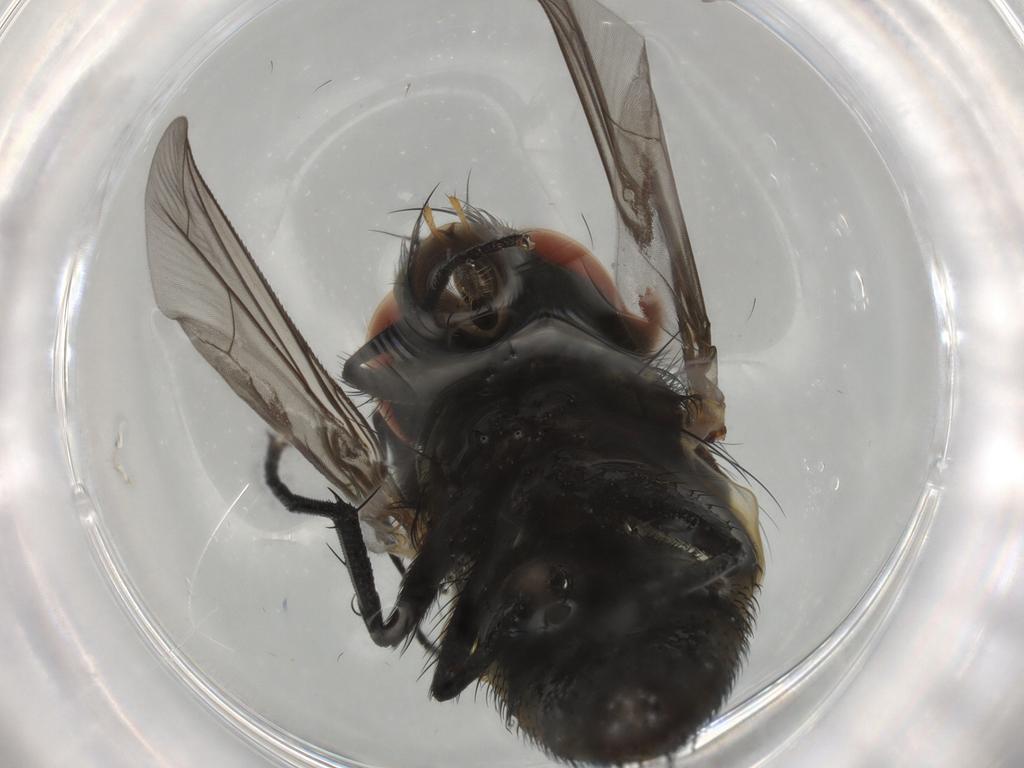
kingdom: Animalia
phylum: Arthropoda
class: Insecta
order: Diptera
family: Sarcophagidae
